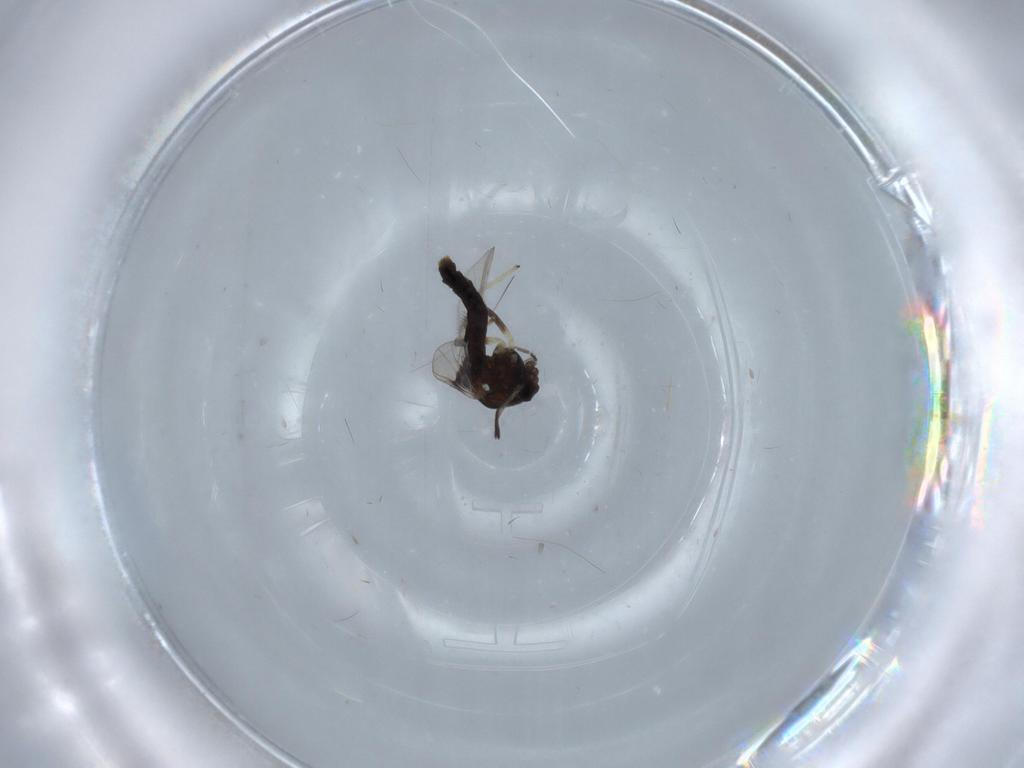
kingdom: Animalia
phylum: Arthropoda
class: Insecta
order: Diptera
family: Chironomidae
